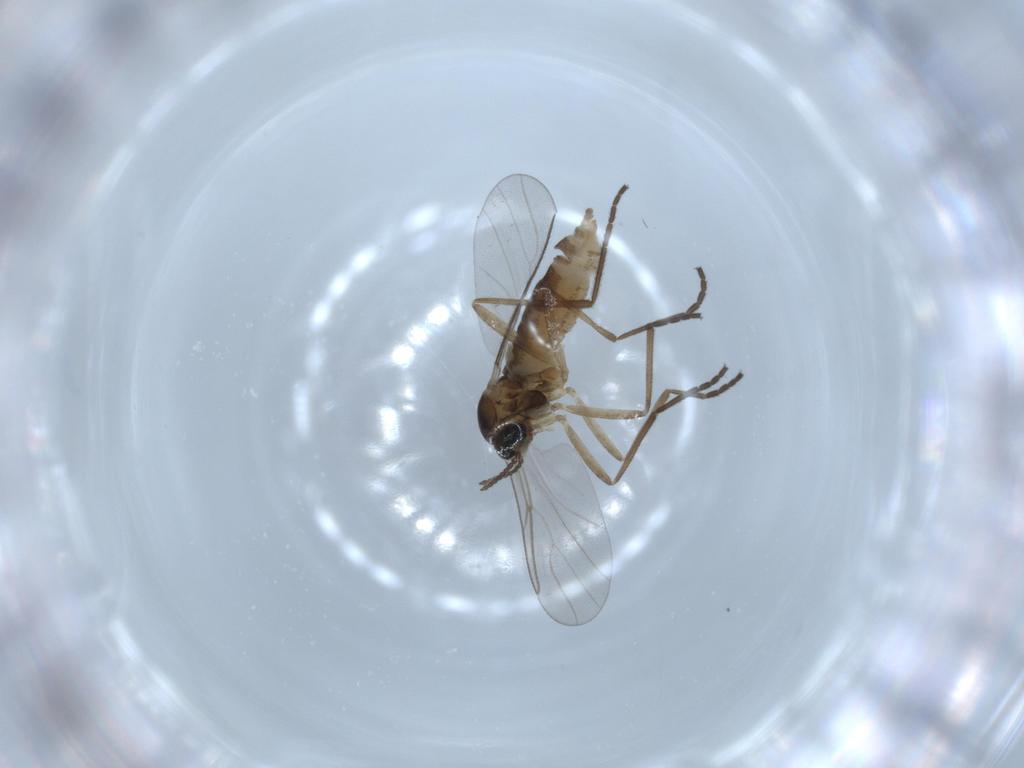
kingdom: Animalia
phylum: Arthropoda
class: Insecta
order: Diptera
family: Cecidomyiidae
